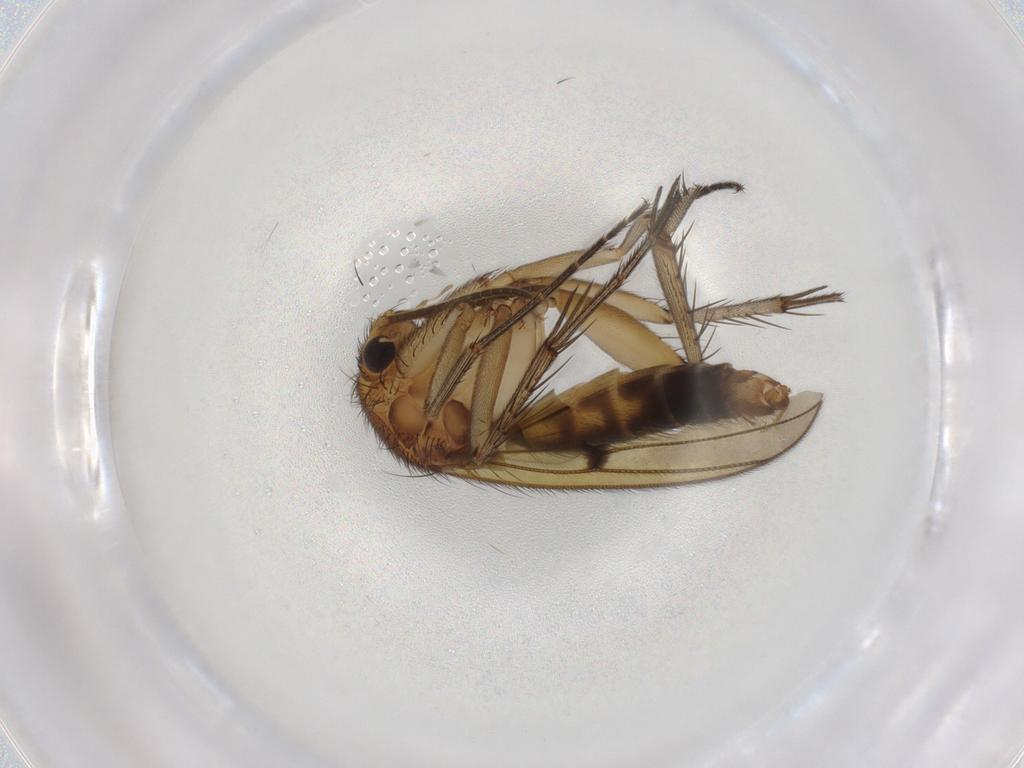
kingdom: Animalia
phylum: Arthropoda
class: Insecta
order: Diptera
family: Mycetophilidae
